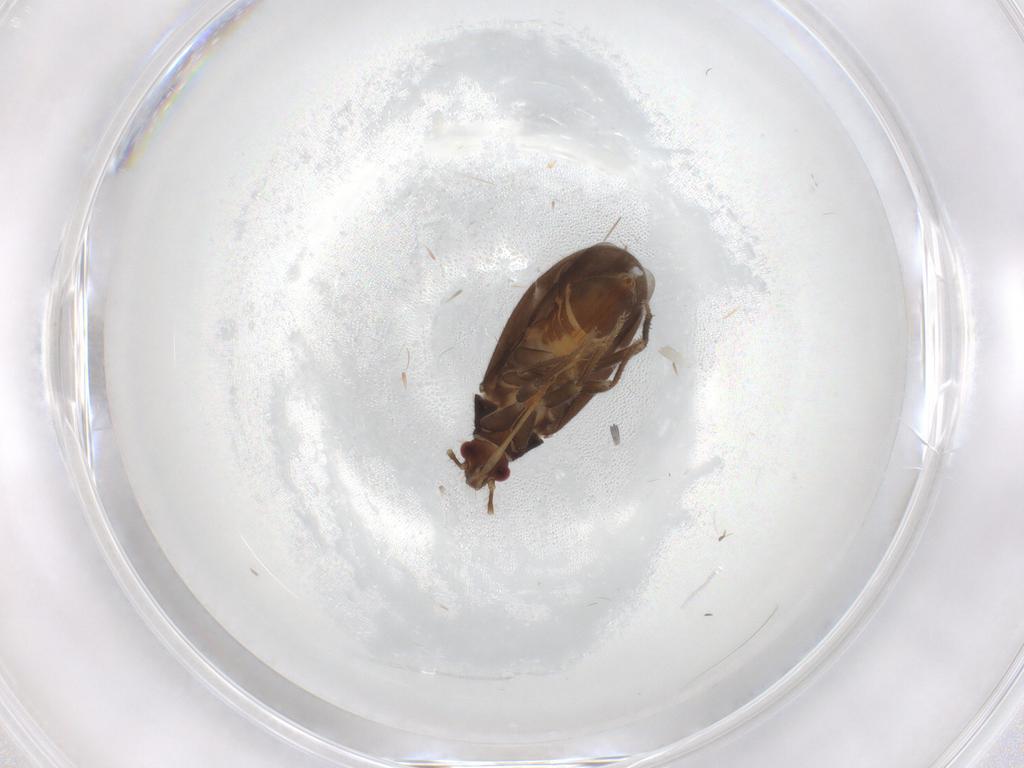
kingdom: Animalia
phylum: Arthropoda
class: Insecta
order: Hemiptera
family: Ceratocombidae
